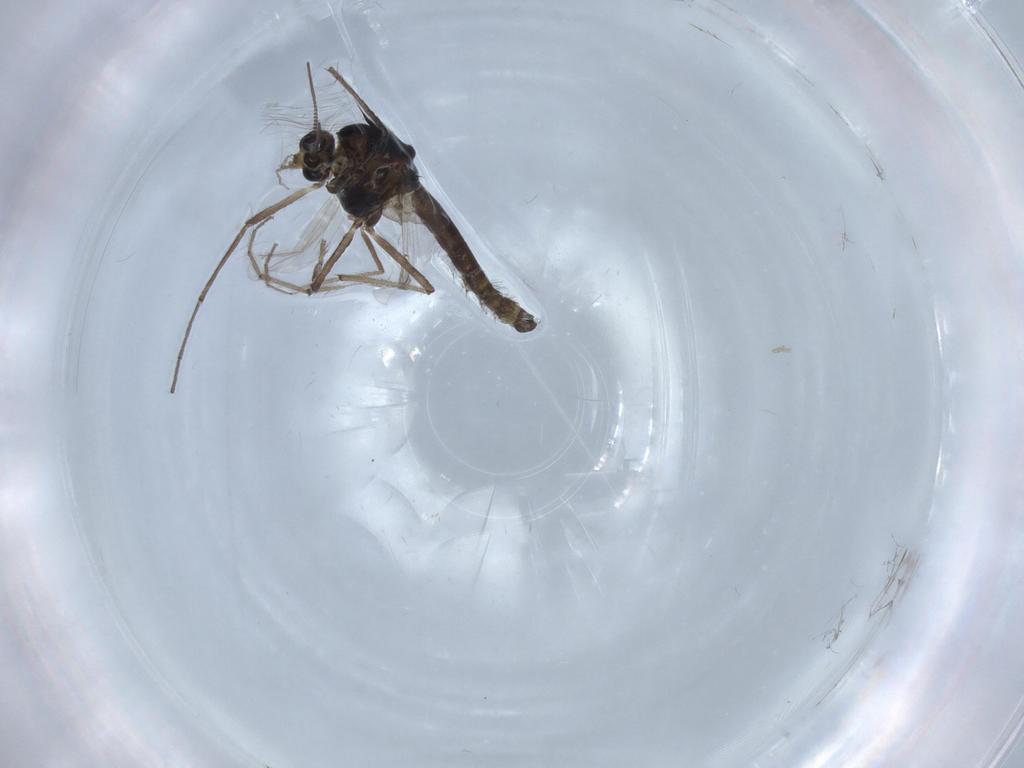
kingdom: Animalia
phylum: Arthropoda
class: Insecta
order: Diptera
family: Chironomidae
